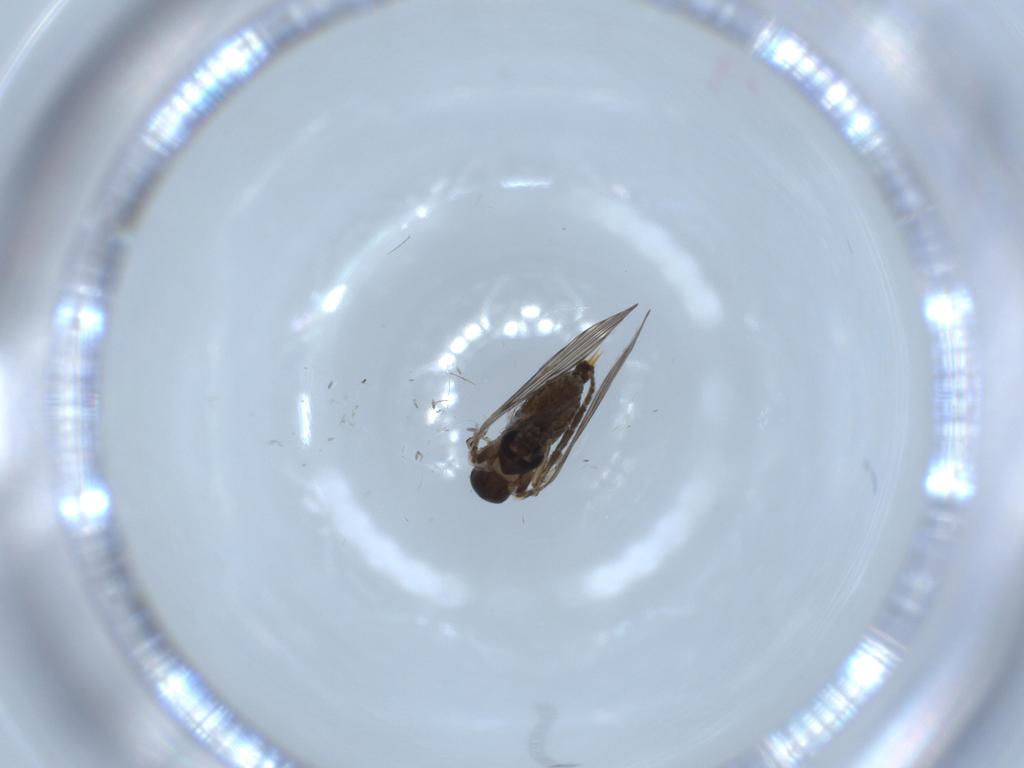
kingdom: Animalia
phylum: Arthropoda
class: Insecta
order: Diptera
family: Psychodidae
